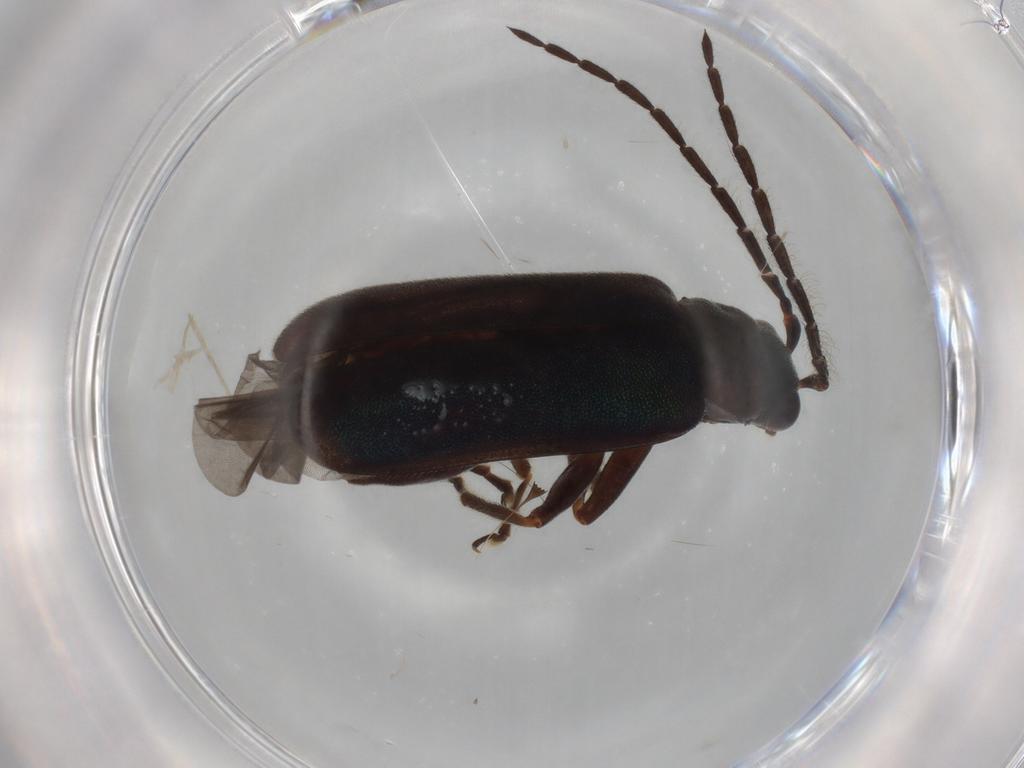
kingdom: Animalia
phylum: Arthropoda
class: Insecta
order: Coleoptera
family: Chrysomelidae
